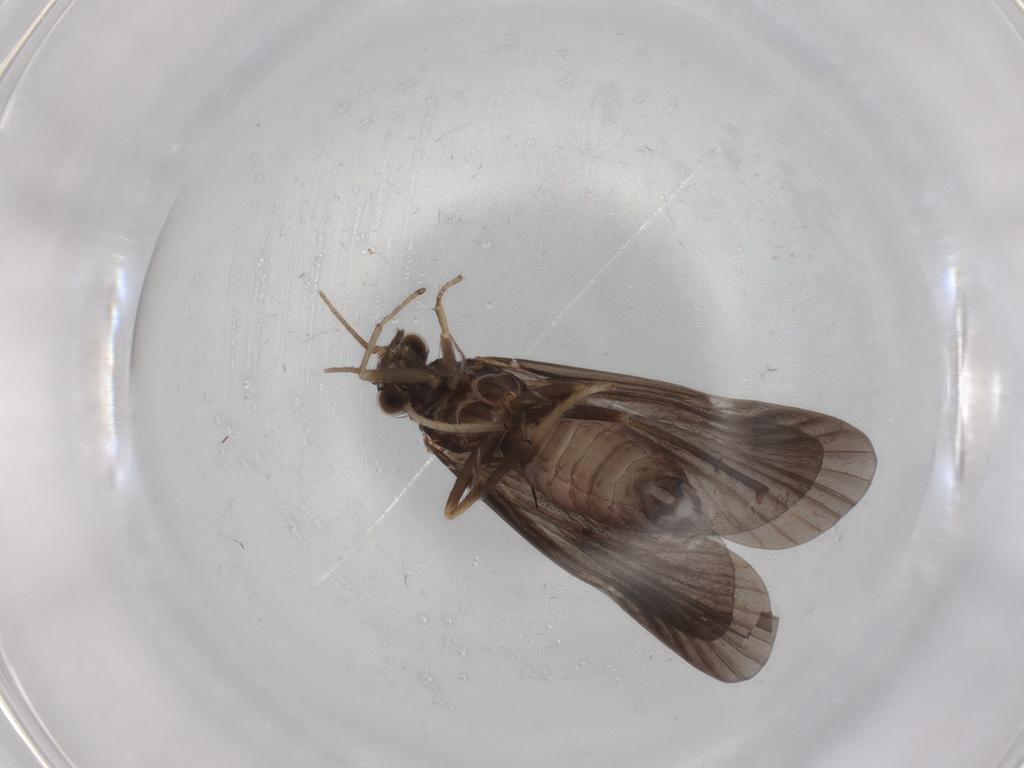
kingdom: Animalia
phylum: Arthropoda
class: Insecta
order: Trichoptera
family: Hydropsychidae
